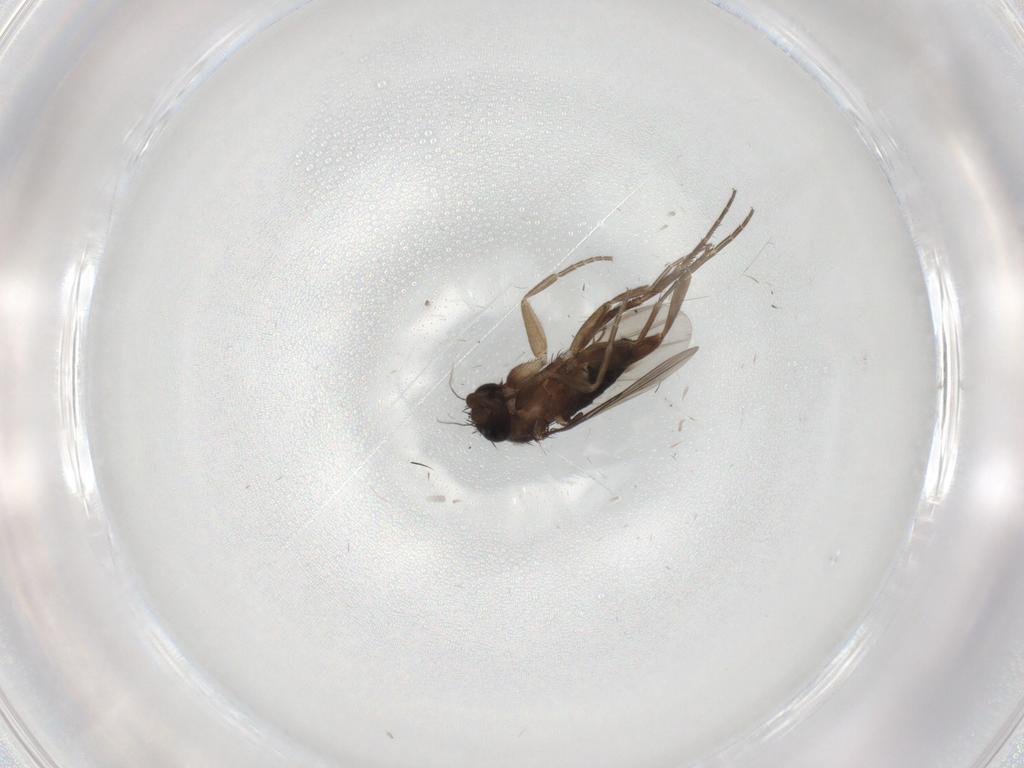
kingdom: Animalia
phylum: Arthropoda
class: Insecta
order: Diptera
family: Phoridae
